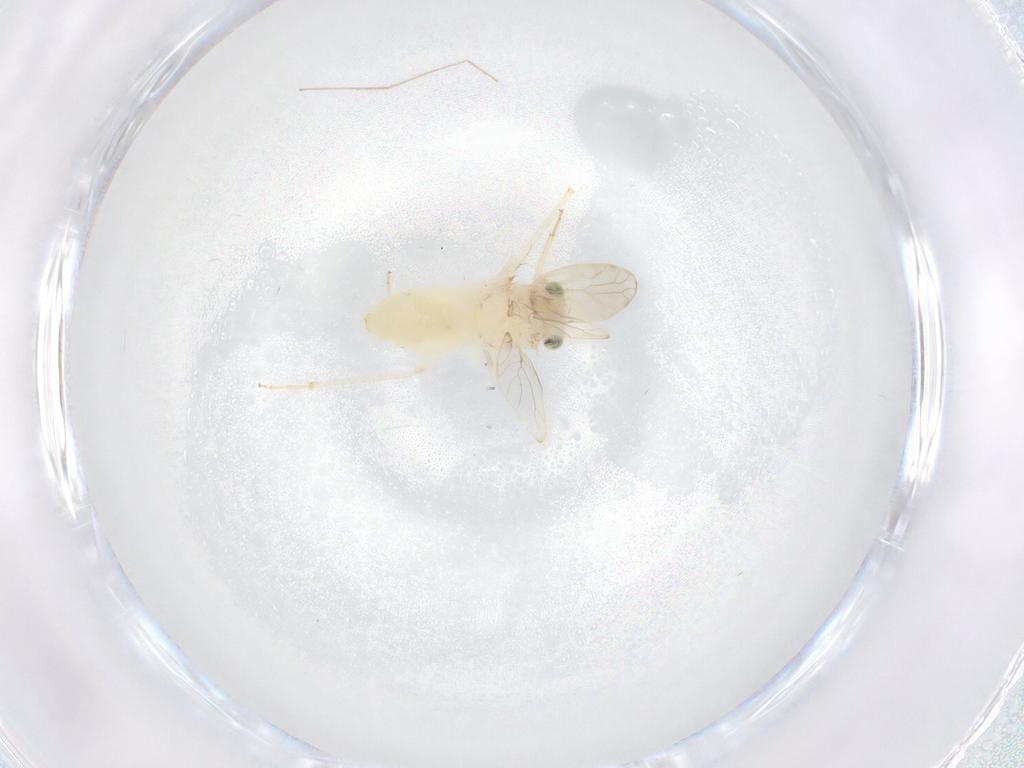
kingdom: Animalia
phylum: Arthropoda
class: Insecta
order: Psocodea
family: Lepidopsocidae
